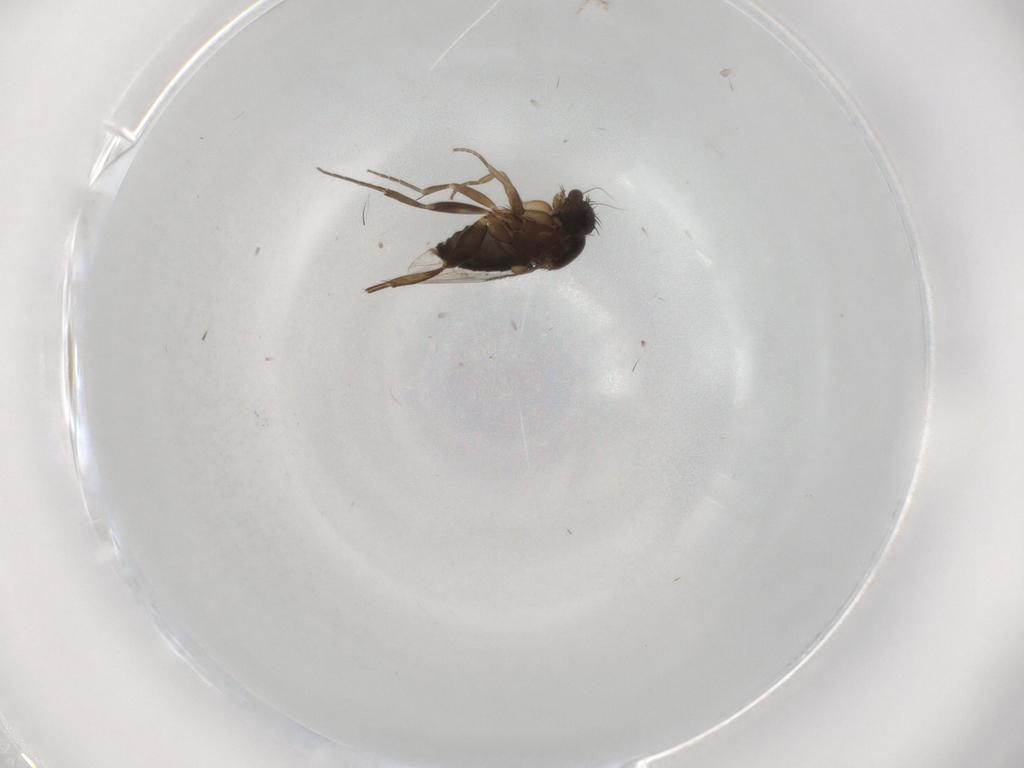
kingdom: Animalia
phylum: Arthropoda
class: Insecta
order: Diptera
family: Phoridae
